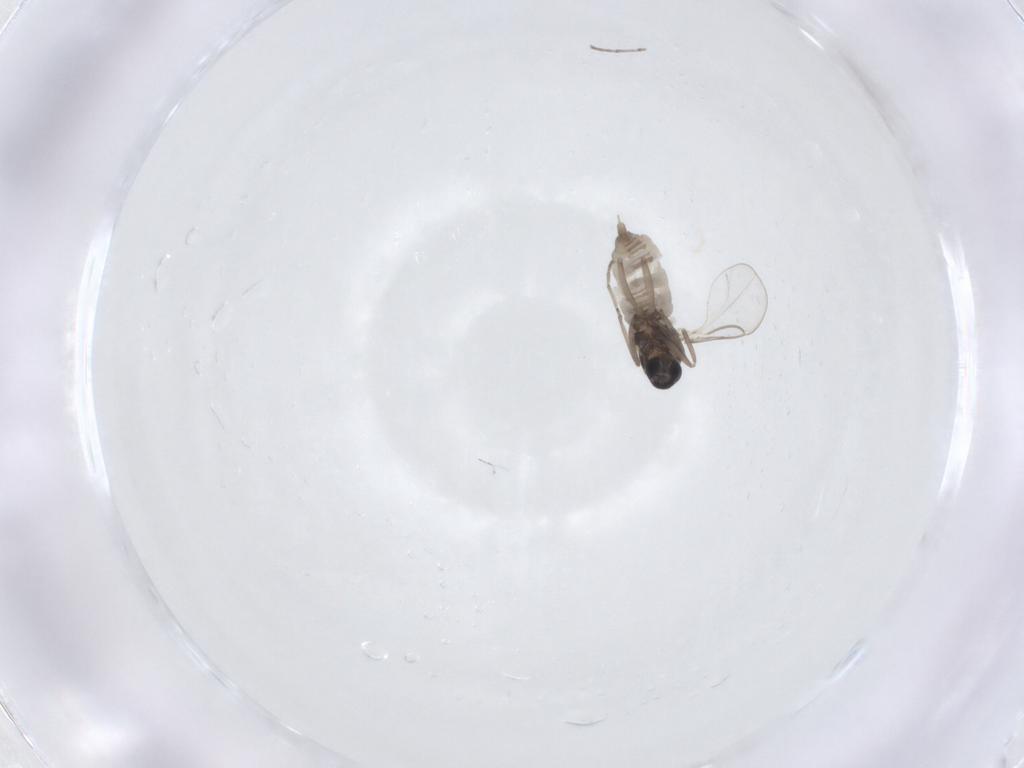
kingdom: Animalia
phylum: Arthropoda
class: Insecta
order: Diptera
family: Cecidomyiidae
